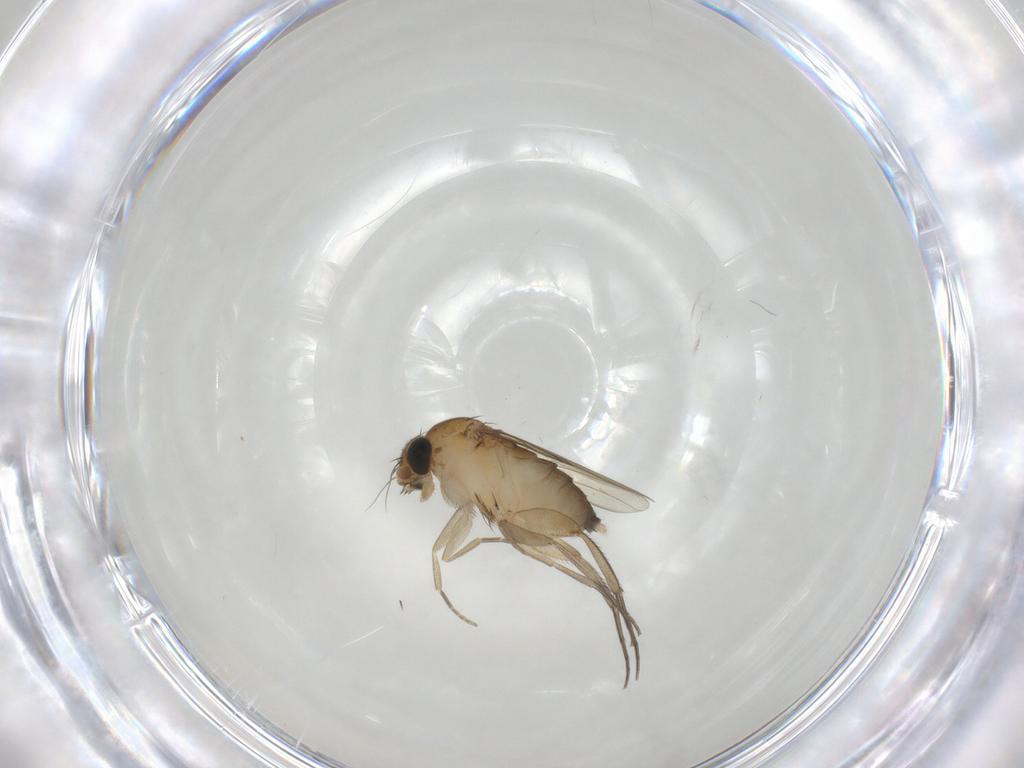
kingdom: Animalia
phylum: Arthropoda
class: Insecta
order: Diptera
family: Phoridae
